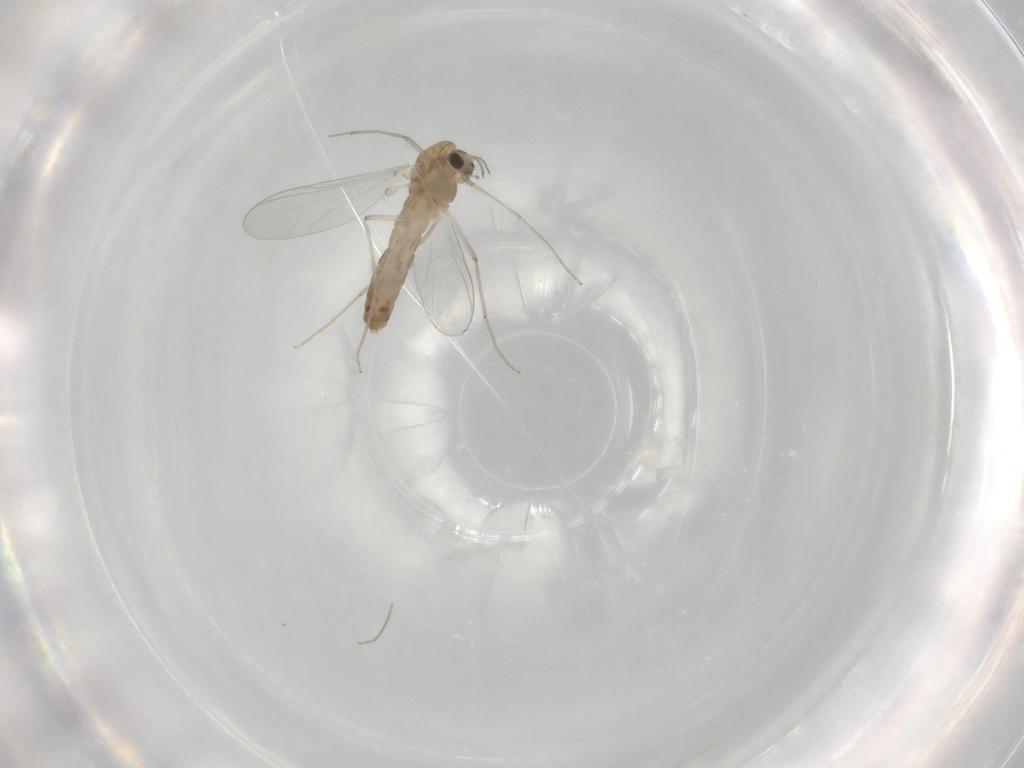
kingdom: Animalia
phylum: Arthropoda
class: Insecta
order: Diptera
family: Chironomidae
